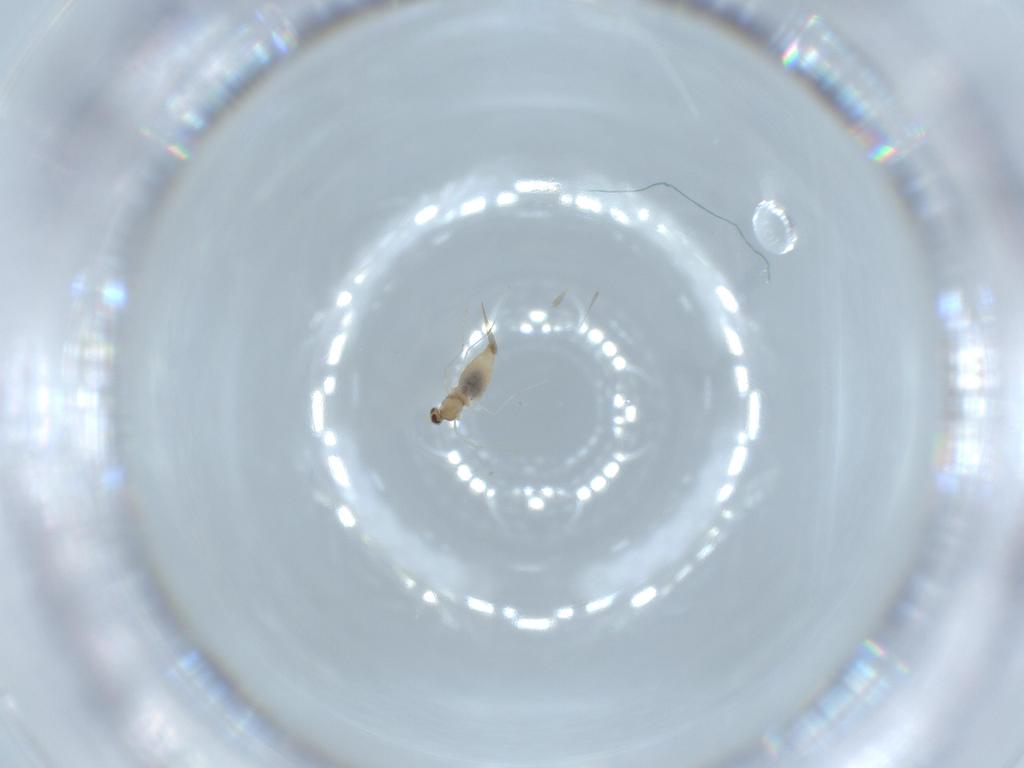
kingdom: Animalia
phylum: Arthropoda
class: Insecta
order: Diptera
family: Cecidomyiidae
